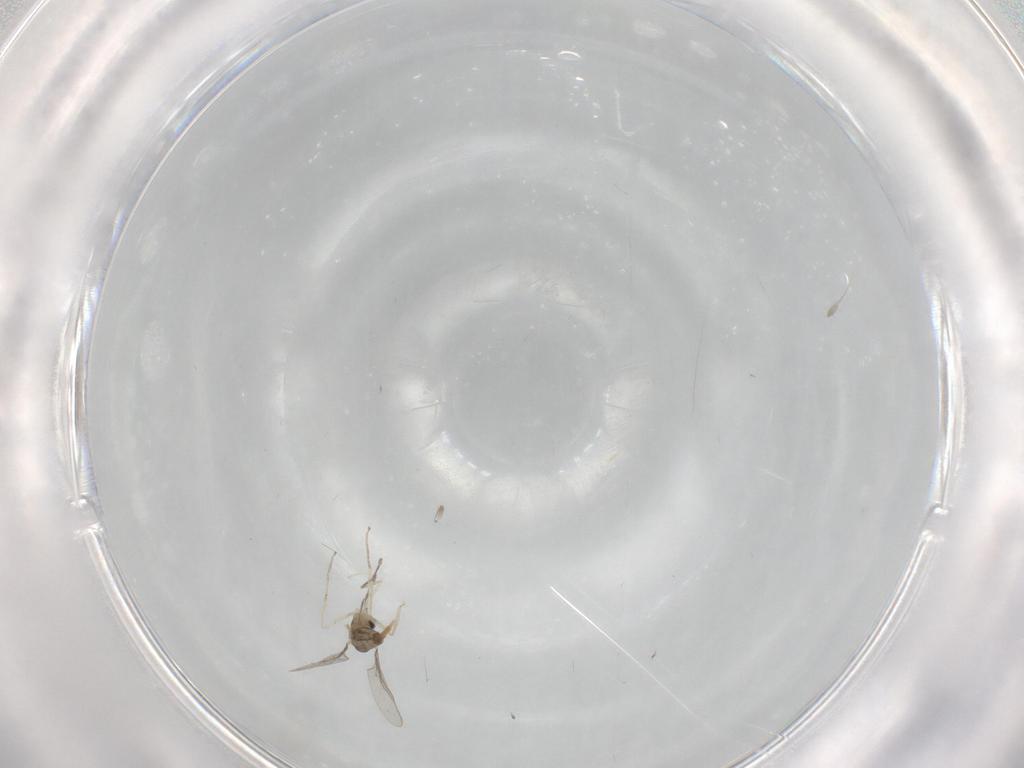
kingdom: Animalia
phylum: Arthropoda
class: Insecta
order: Diptera
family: Cecidomyiidae
